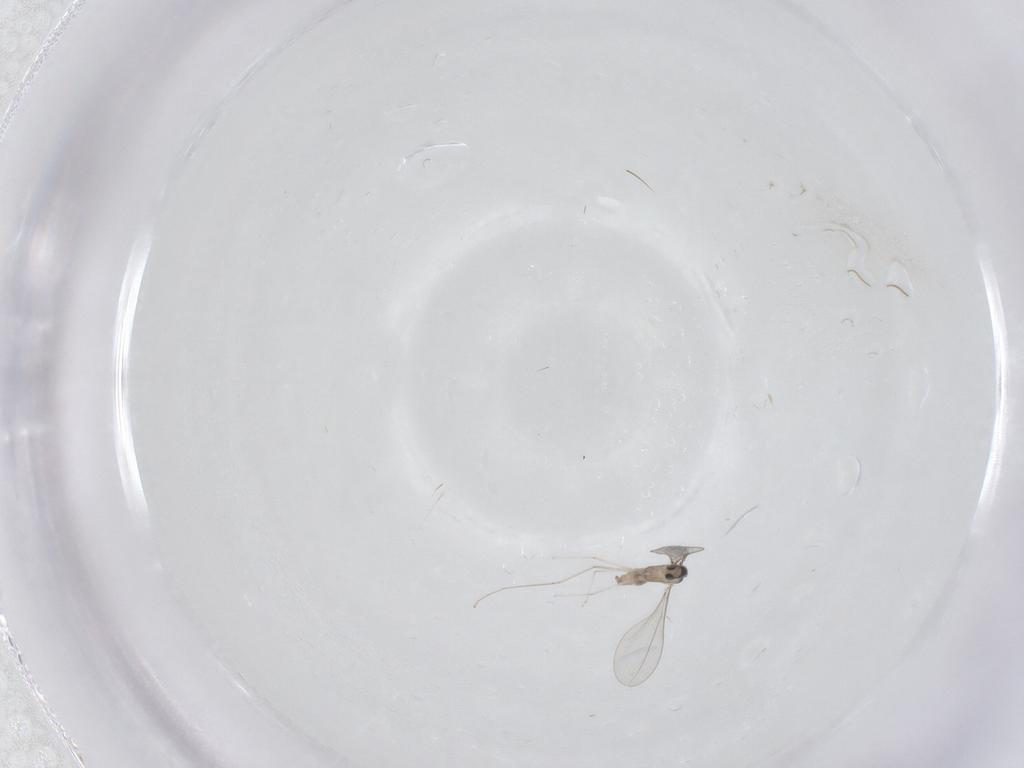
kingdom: Animalia
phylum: Arthropoda
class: Insecta
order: Diptera
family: Cecidomyiidae
